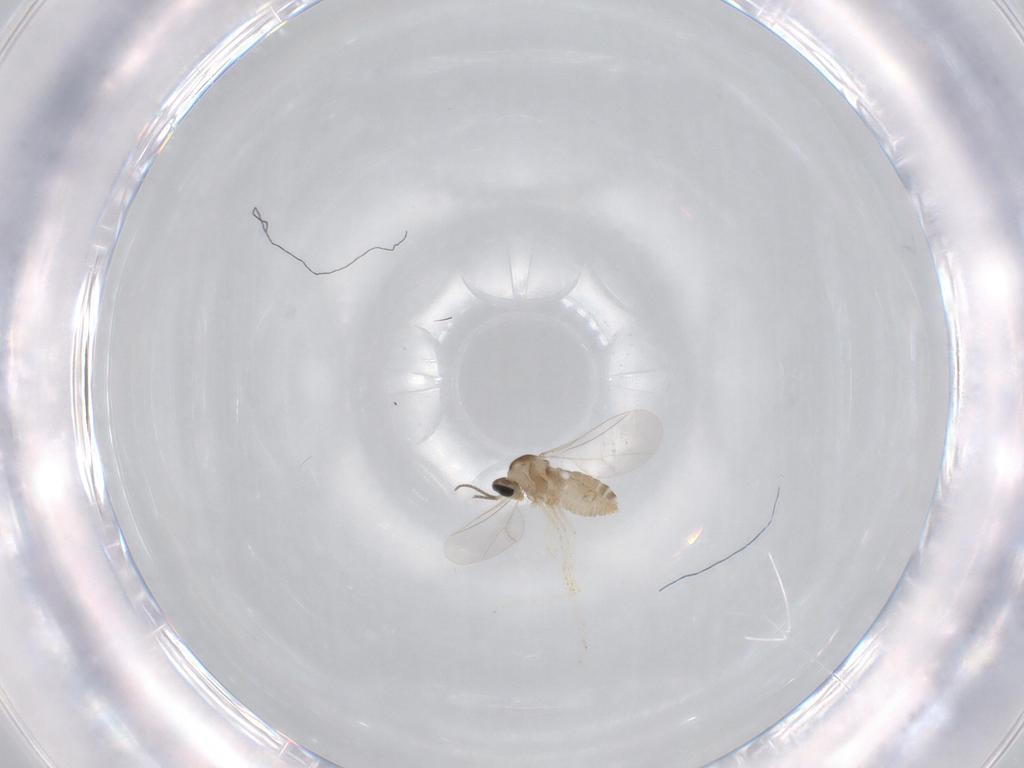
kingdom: Animalia
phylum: Arthropoda
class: Insecta
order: Diptera
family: Cecidomyiidae
